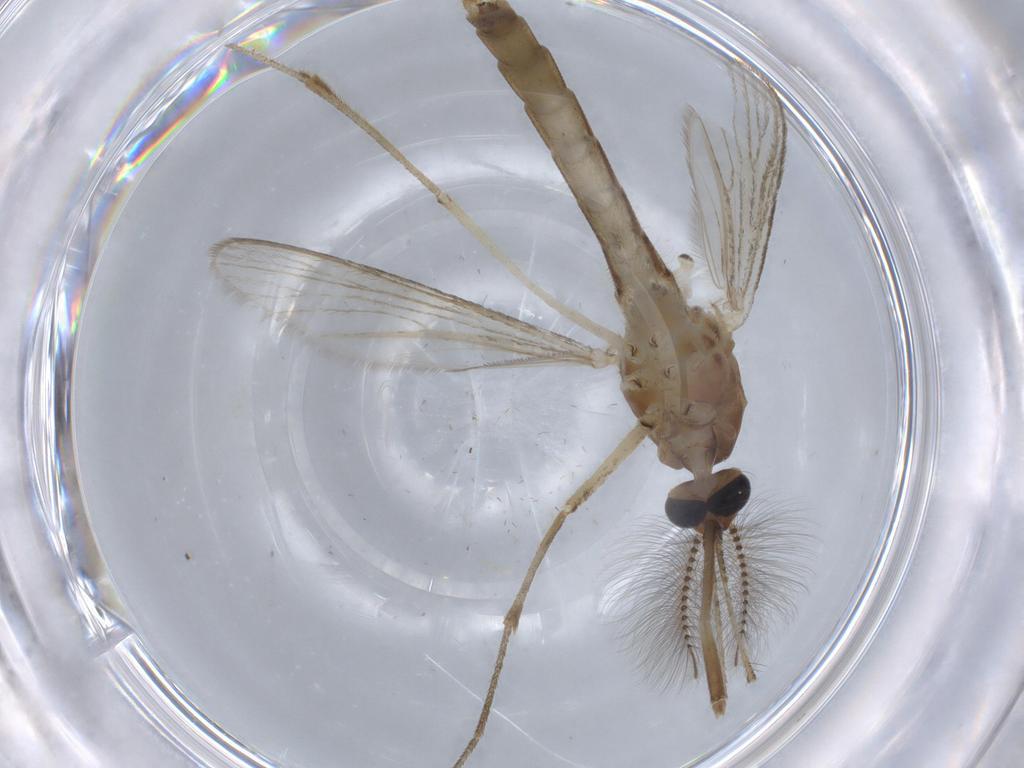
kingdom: Animalia
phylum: Arthropoda
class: Insecta
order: Diptera
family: Culicidae
